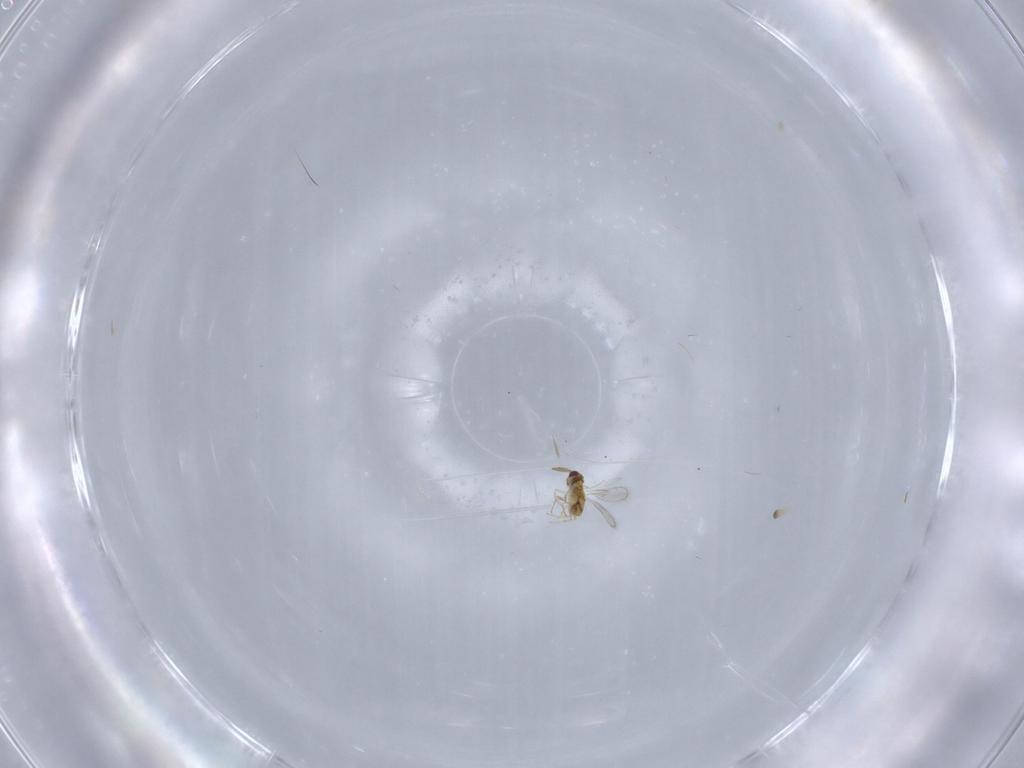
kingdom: Animalia
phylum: Arthropoda
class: Insecta
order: Hymenoptera
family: Aphelinidae
